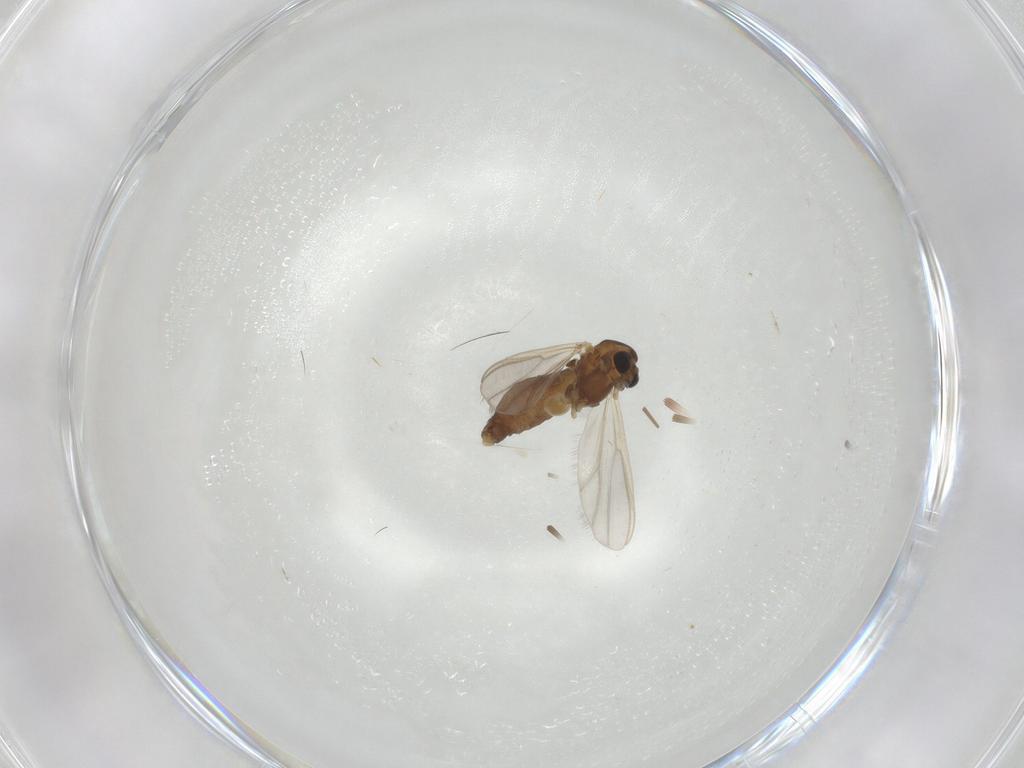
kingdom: Animalia
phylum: Arthropoda
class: Insecta
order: Diptera
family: Culicidae
